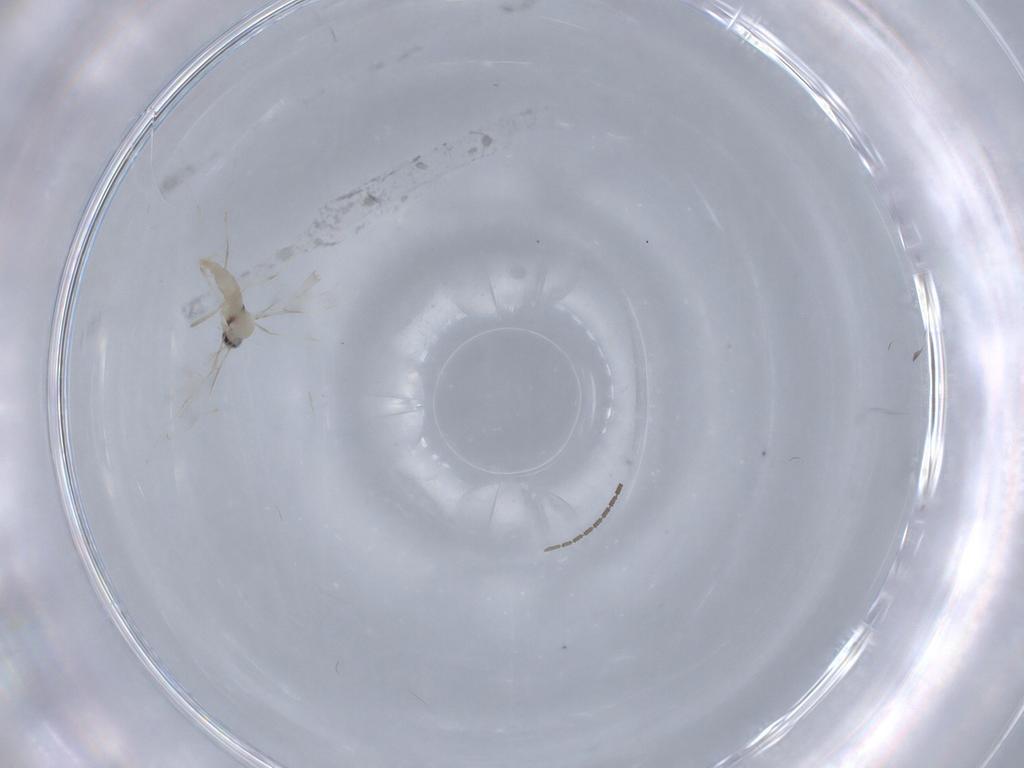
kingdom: Animalia
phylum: Arthropoda
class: Insecta
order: Diptera
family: Cecidomyiidae
